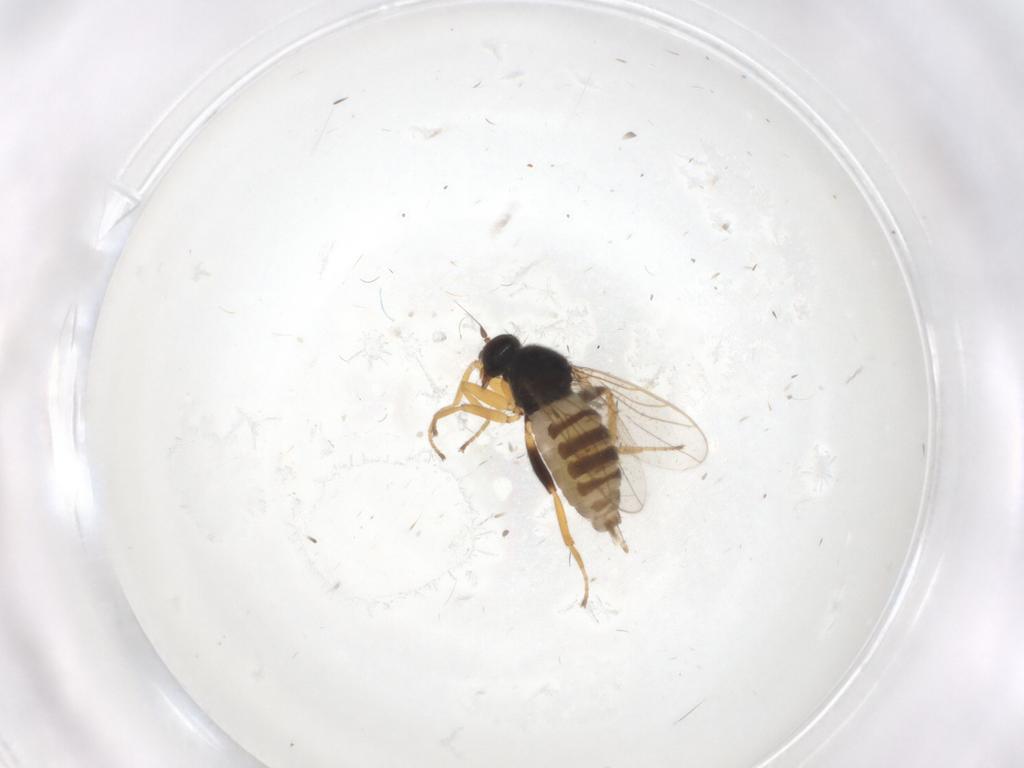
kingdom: Animalia
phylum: Arthropoda
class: Insecta
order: Diptera
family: Hybotidae
